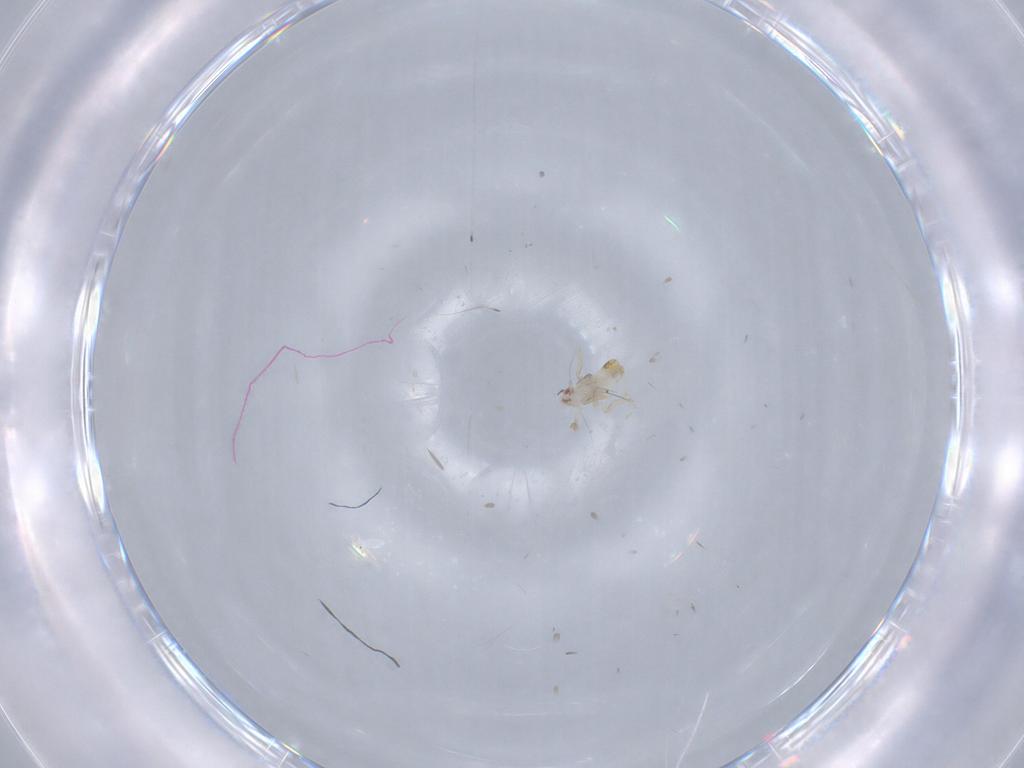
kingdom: Animalia
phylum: Arthropoda
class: Insecta
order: Hemiptera
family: Delphacidae
